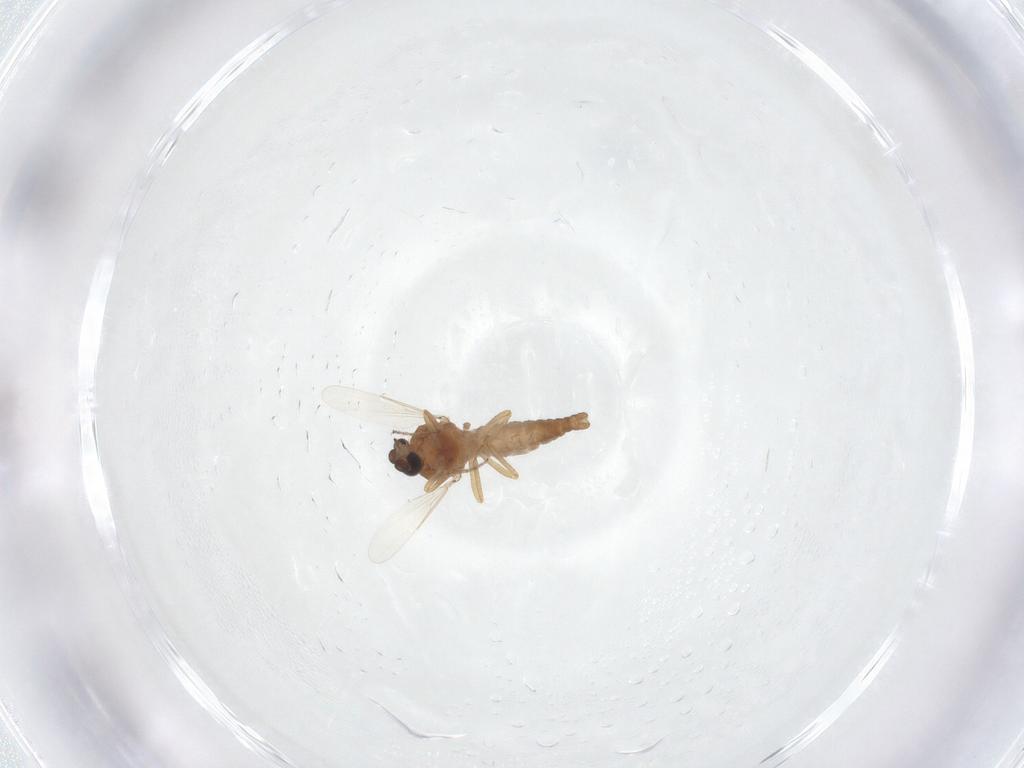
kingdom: Animalia
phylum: Arthropoda
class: Insecta
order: Diptera
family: Ceratopogonidae
